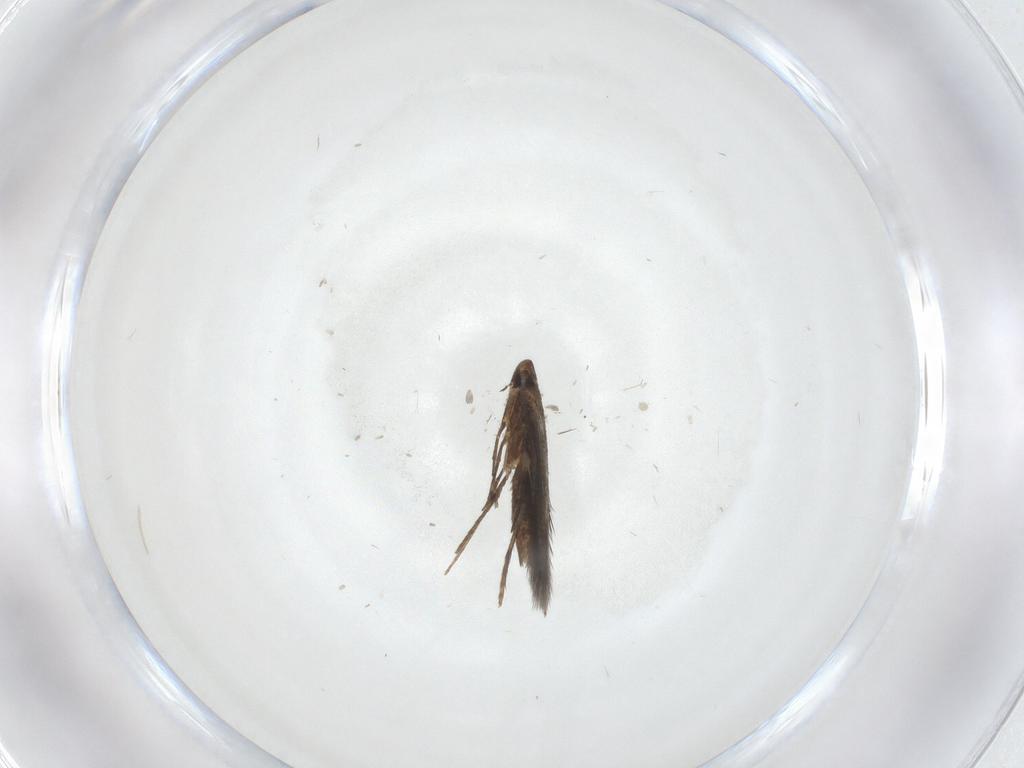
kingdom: Animalia
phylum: Arthropoda
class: Insecta
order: Lepidoptera
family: Gelechiidae
